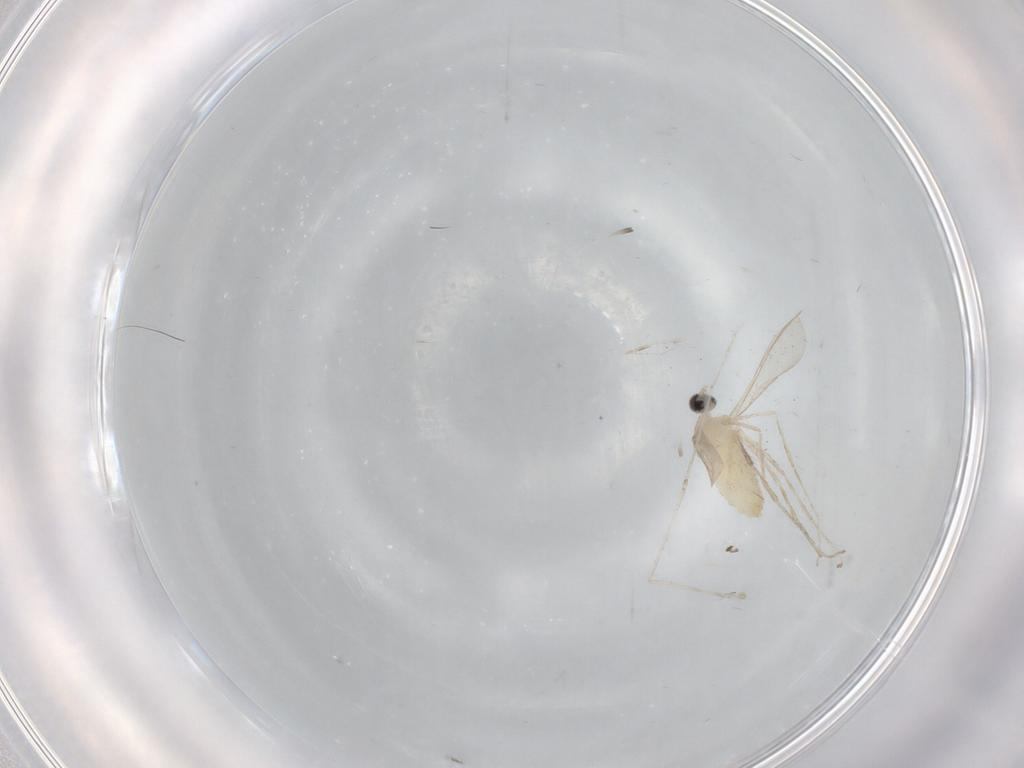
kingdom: Animalia
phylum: Arthropoda
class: Insecta
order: Diptera
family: Cecidomyiidae
